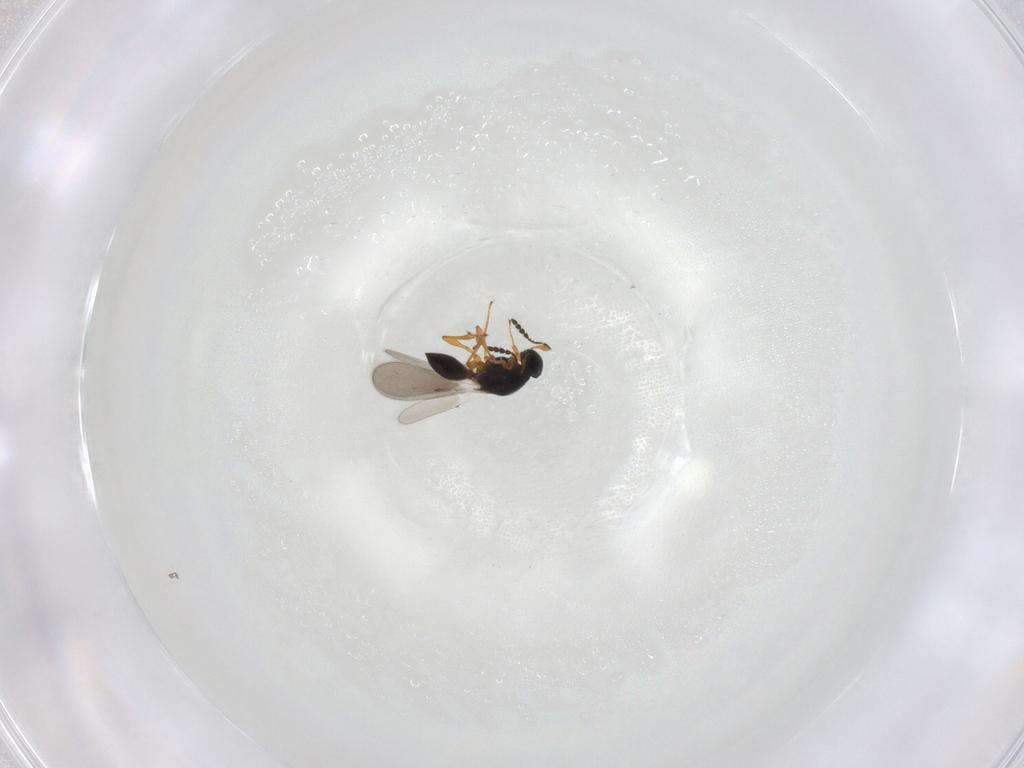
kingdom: Animalia
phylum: Arthropoda
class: Insecta
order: Hymenoptera
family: Platygastridae
